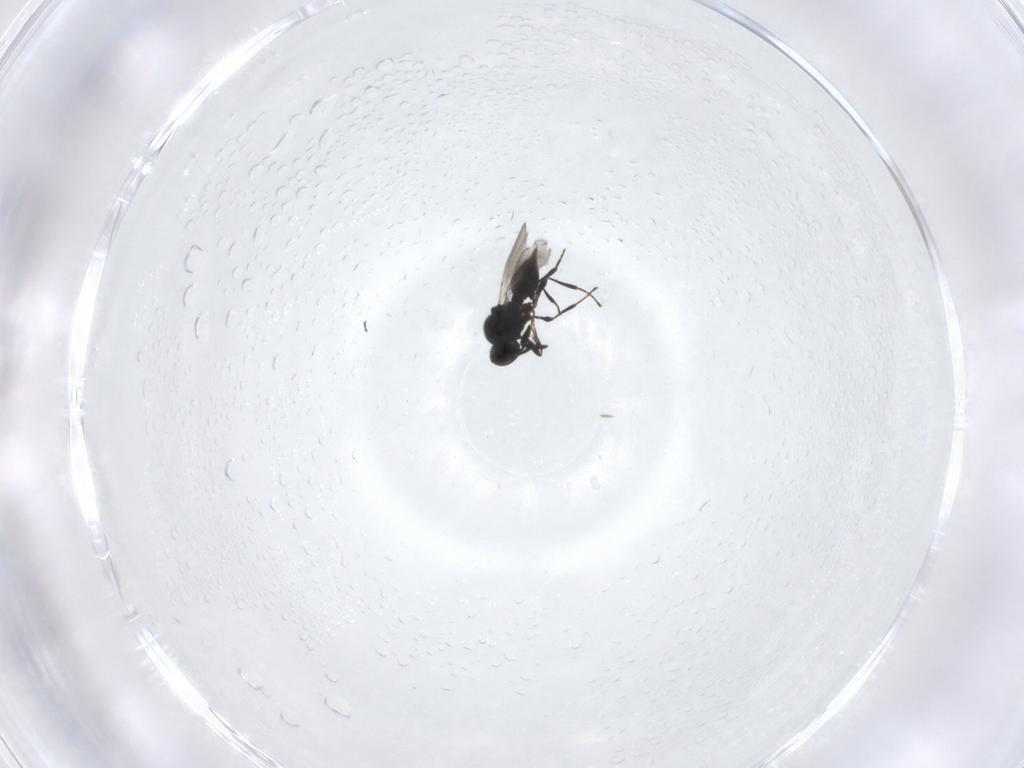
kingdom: Animalia
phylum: Arthropoda
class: Insecta
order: Hymenoptera
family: Platygastridae
